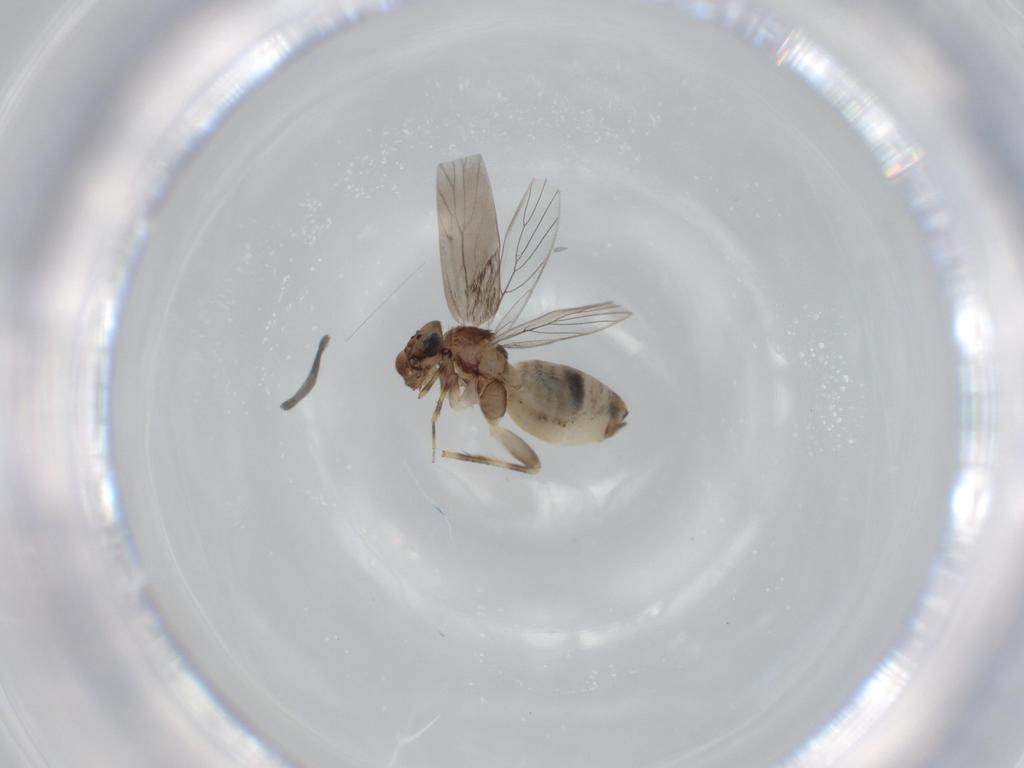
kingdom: Animalia
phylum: Arthropoda
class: Insecta
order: Psocodea
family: Lepidopsocidae
